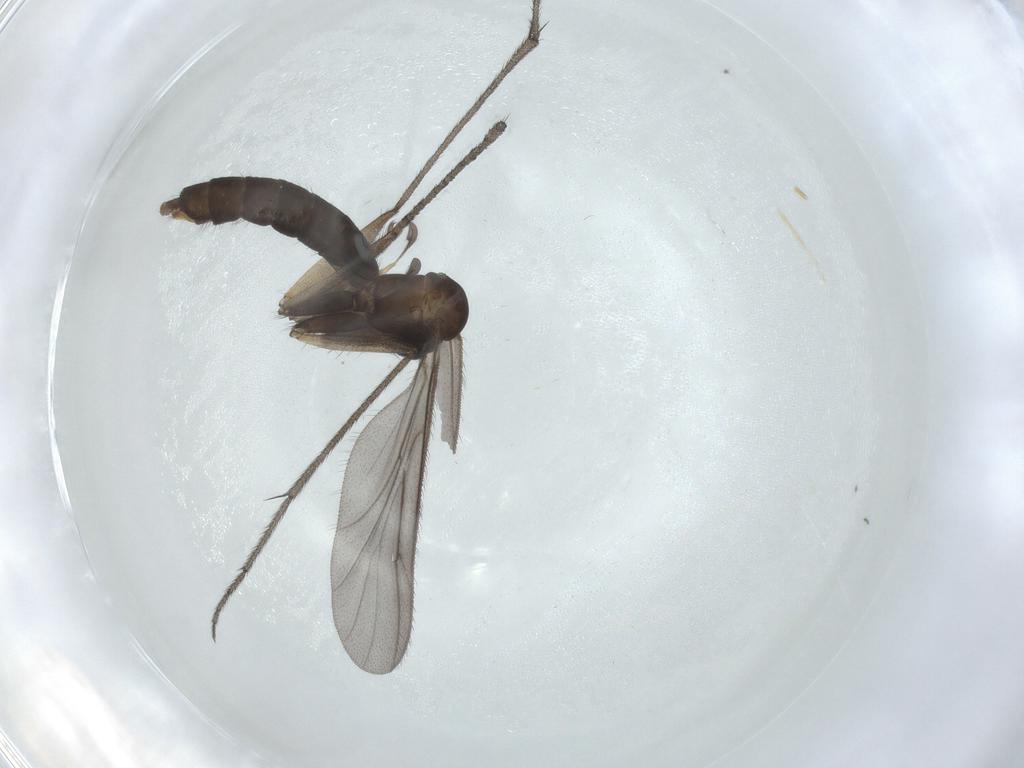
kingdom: Animalia
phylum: Arthropoda
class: Insecta
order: Diptera
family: Ditomyiidae
